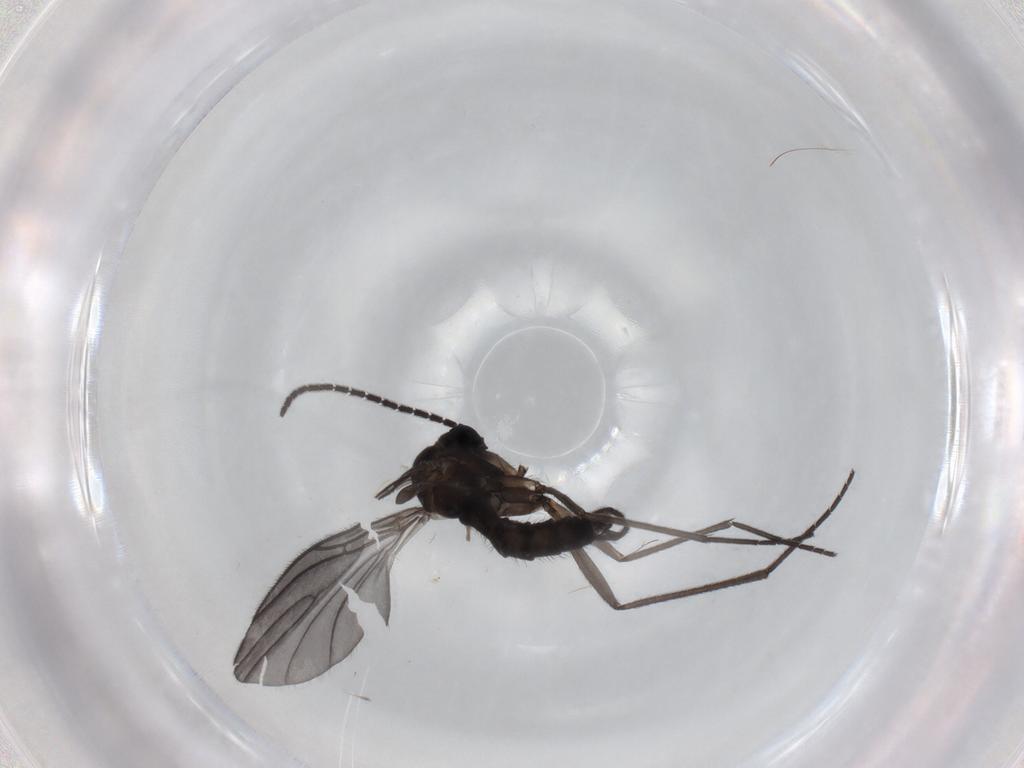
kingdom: Animalia
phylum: Arthropoda
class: Insecta
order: Diptera
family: Sciaridae
